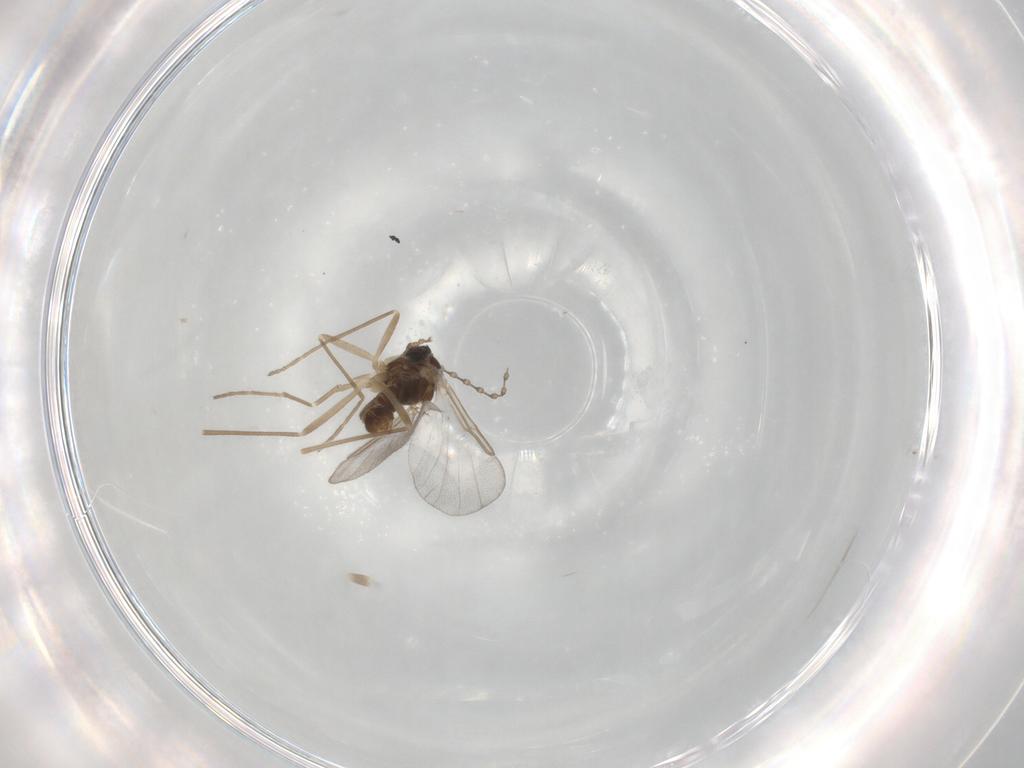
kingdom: Animalia
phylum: Arthropoda
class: Insecta
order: Diptera
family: Cecidomyiidae
